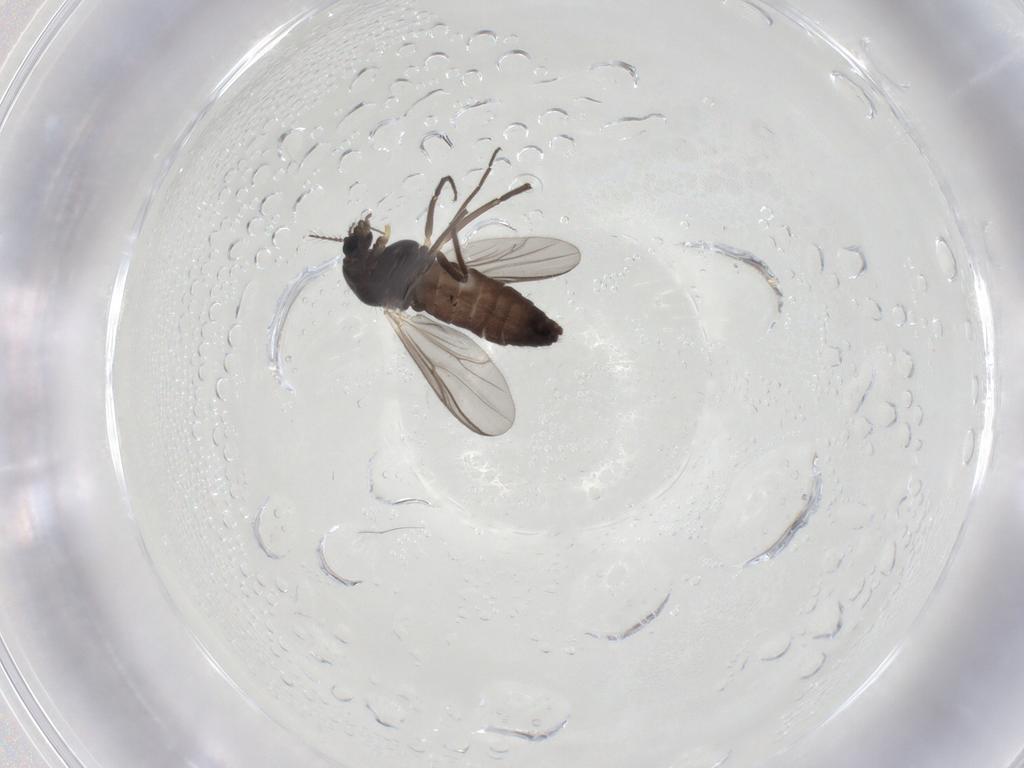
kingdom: Animalia
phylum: Arthropoda
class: Insecta
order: Diptera
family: Chironomidae
